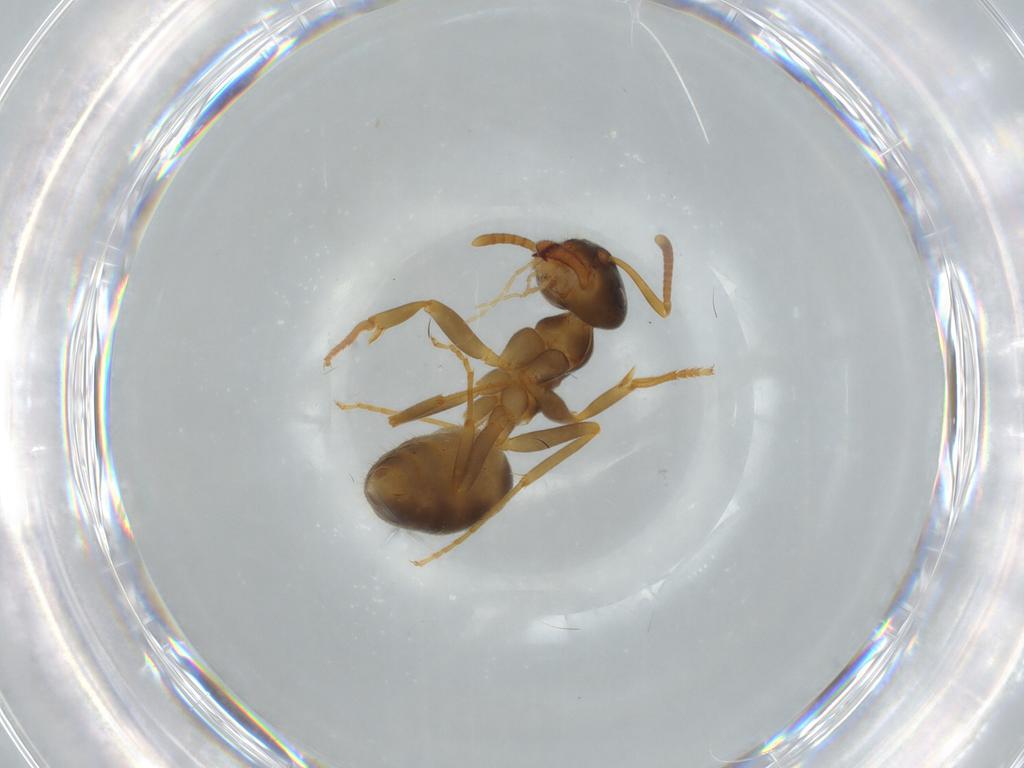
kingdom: Animalia
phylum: Arthropoda
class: Insecta
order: Hymenoptera
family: Formicidae
